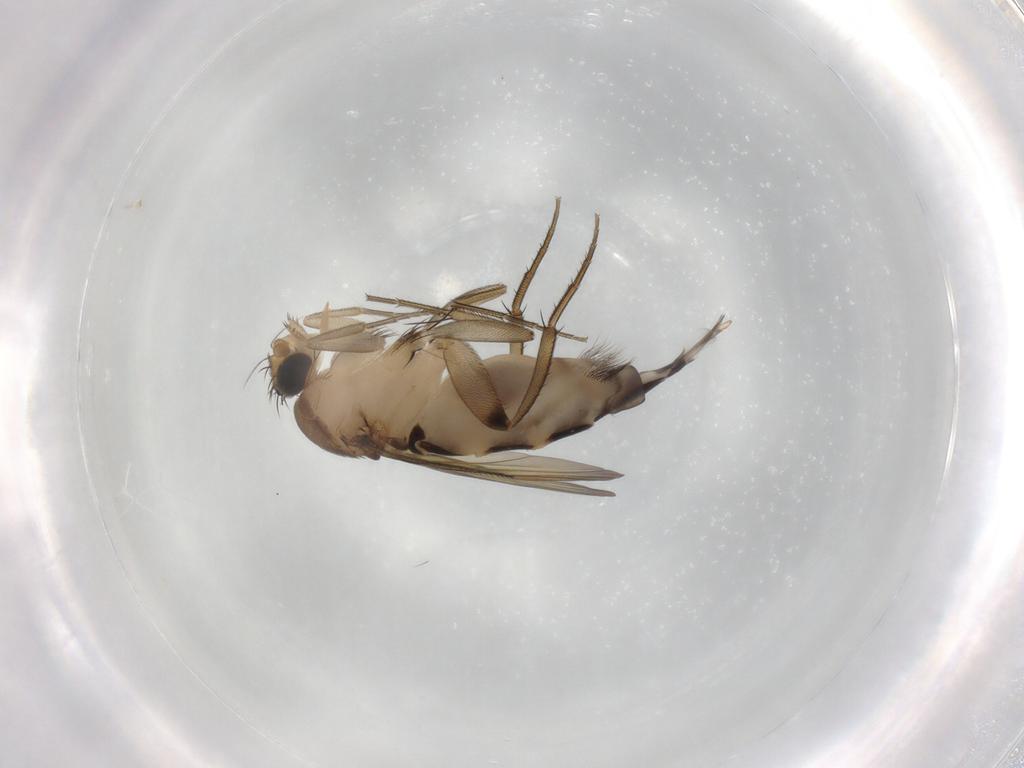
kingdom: Animalia
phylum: Arthropoda
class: Insecta
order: Diptera
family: Phoridae
